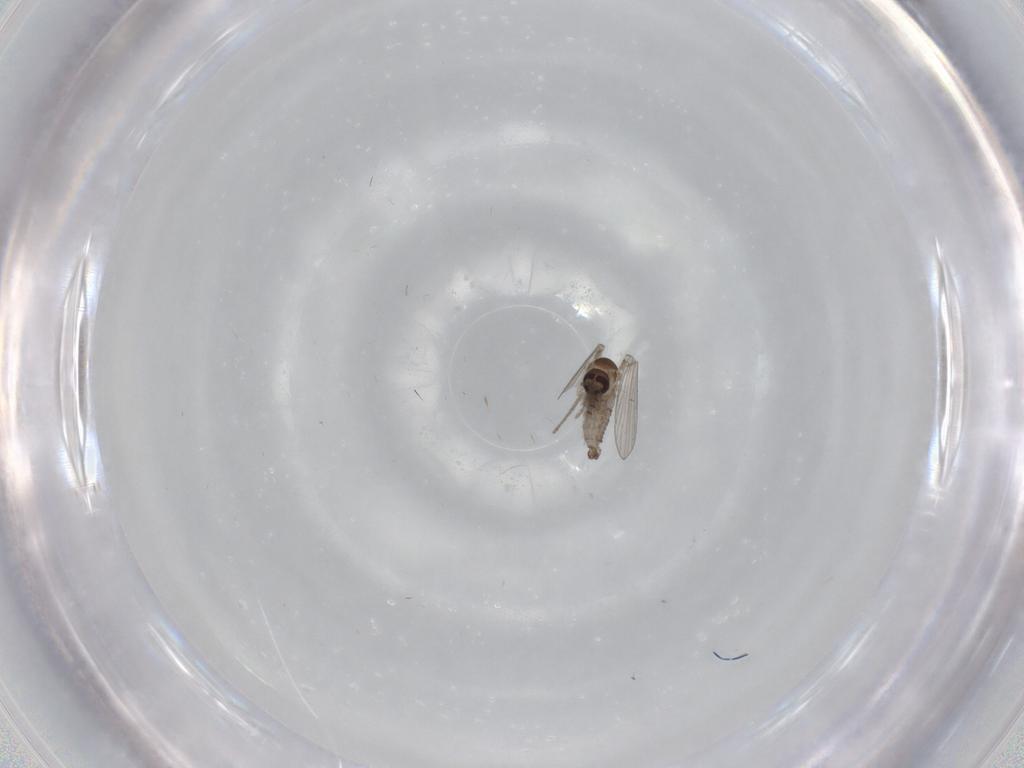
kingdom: Animalia
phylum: Arthropoda
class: Insecta
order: Diptera
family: Psychodidae
